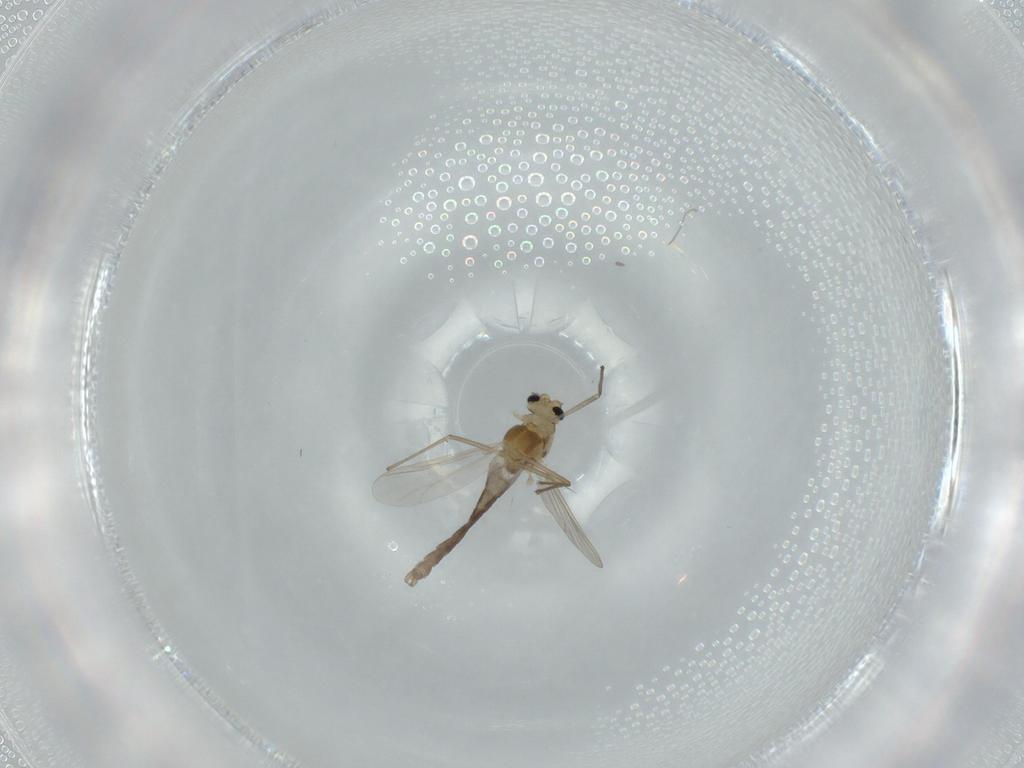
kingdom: Animalia
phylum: Arthropoda
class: Insecta
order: Diptera
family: Chironomidae
